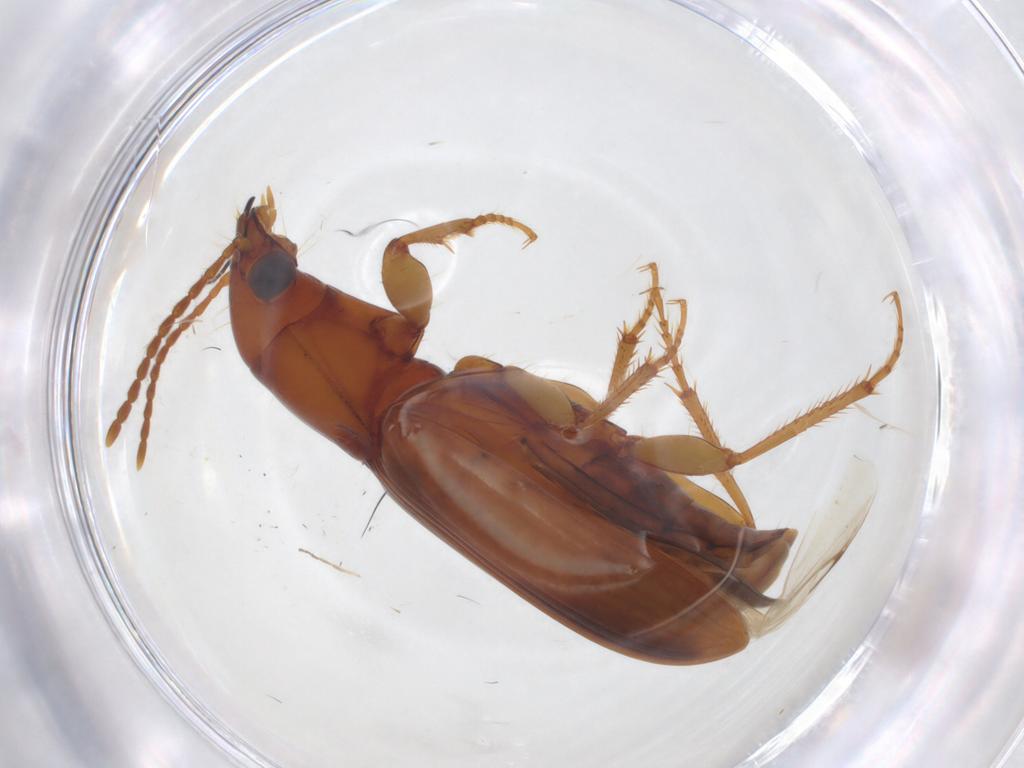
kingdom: Animalia
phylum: Arthropoda
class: Insecta
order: Coleoptera
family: Carabidae
